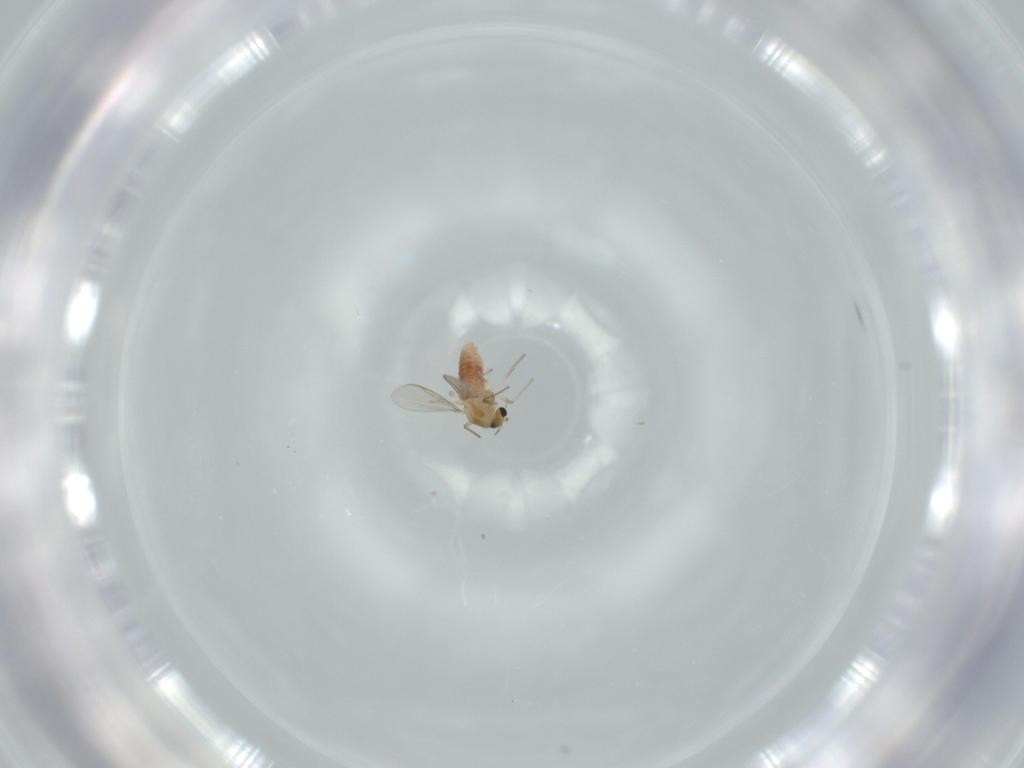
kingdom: Animalia
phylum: Arthropoda
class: Insecta
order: Diptera
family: Chironomidae
